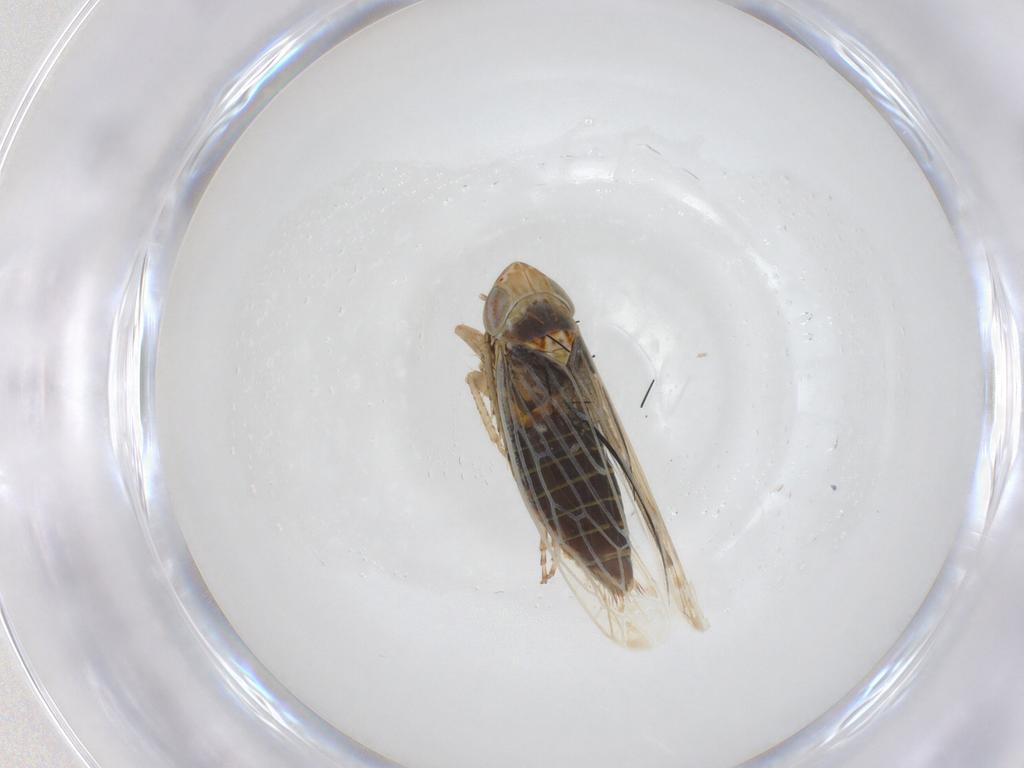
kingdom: Animalia
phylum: Arthropoda
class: Insecta
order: Hemiptera
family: Cicadellidae
